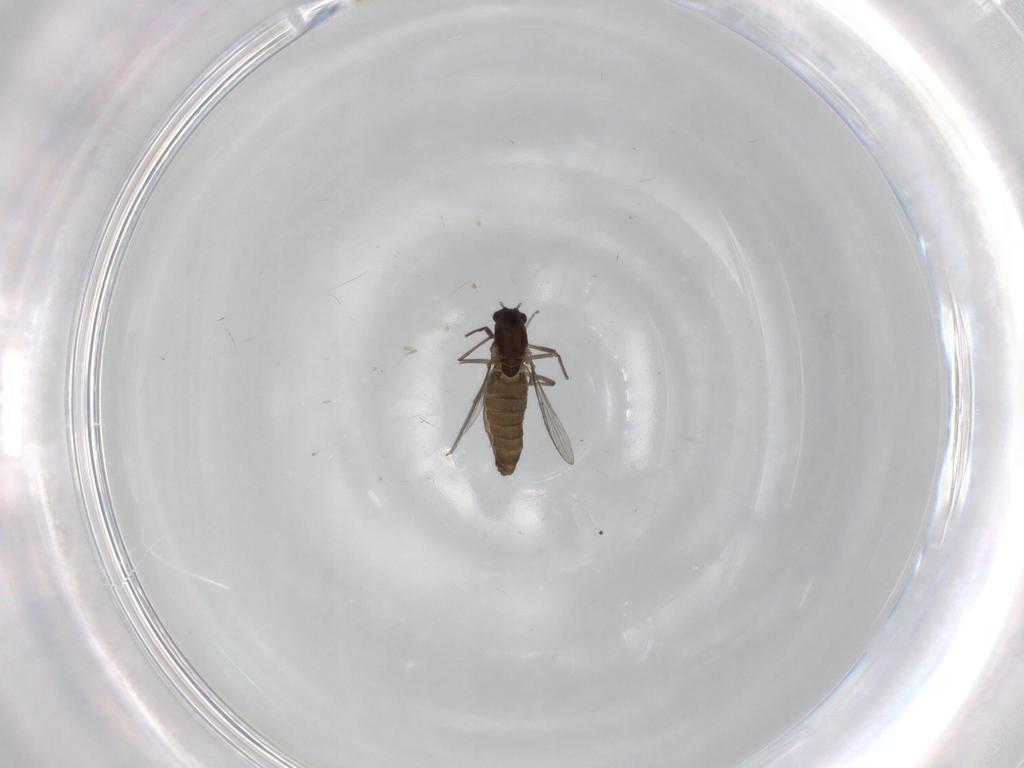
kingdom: Animalia
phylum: Arthropoda
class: Insecta
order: Diptera
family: Chironomidae
